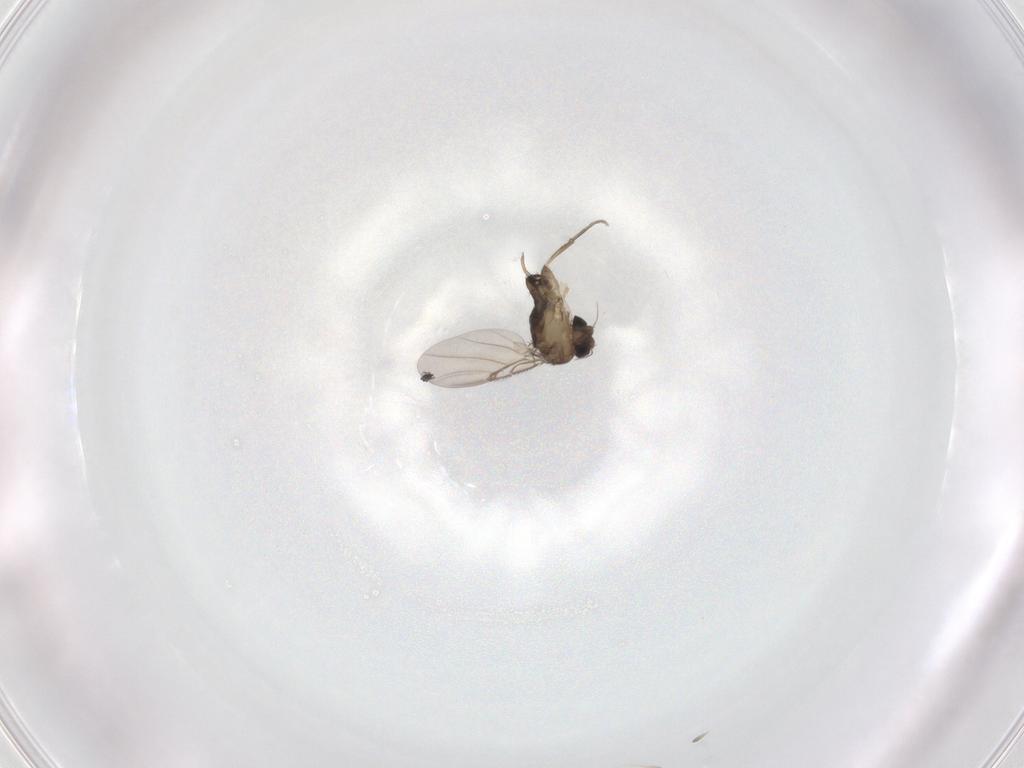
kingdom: Animalia
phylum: Arthropoda
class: Insecta
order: Diptera
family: Phoridae
